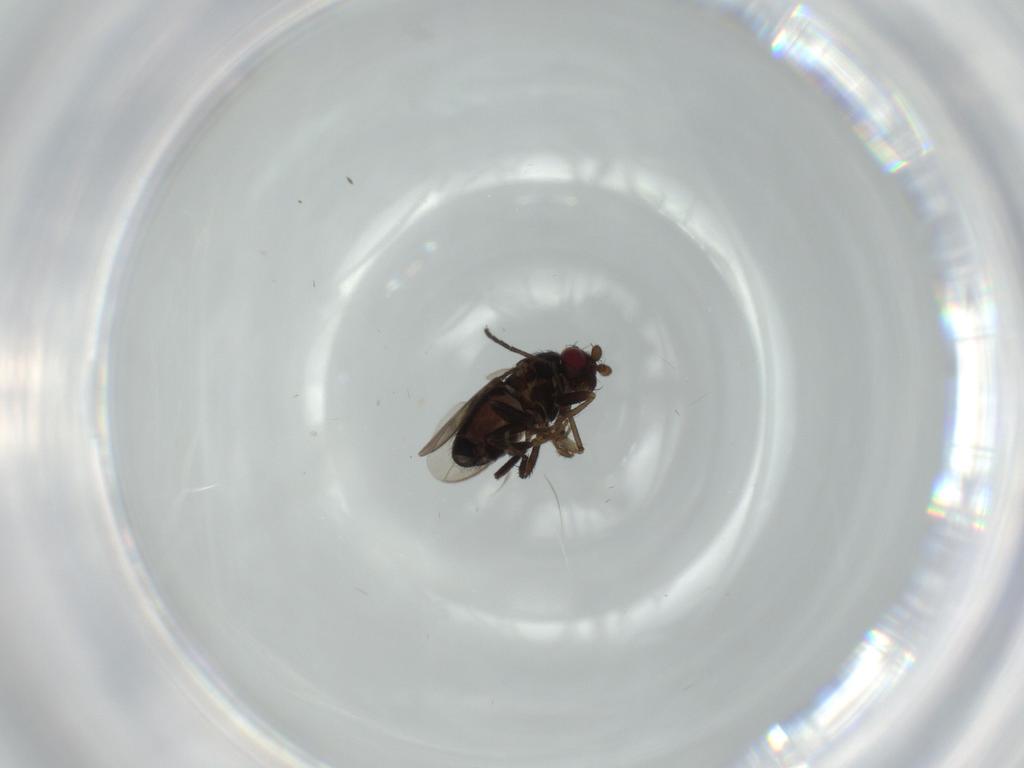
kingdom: Animalia
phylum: Arthropoda
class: Insecta
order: Diptera
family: Sphaeroceridae
